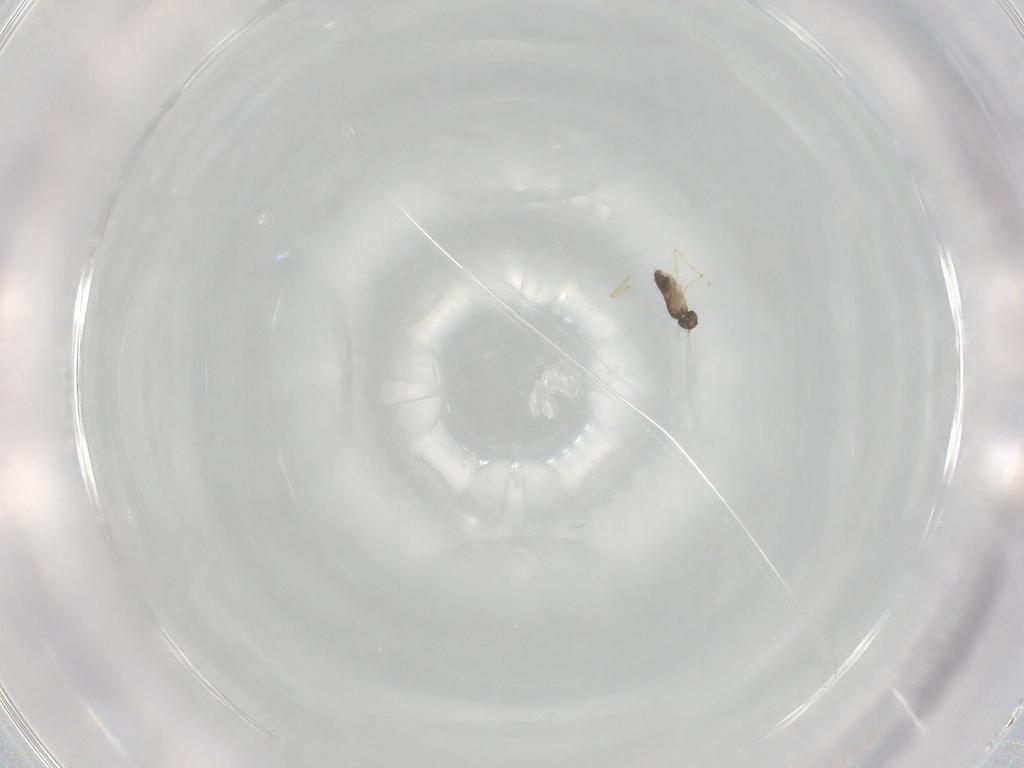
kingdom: Animalia
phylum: Arthropoda
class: Insecta
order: Hymenoptera
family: Mymaridae
